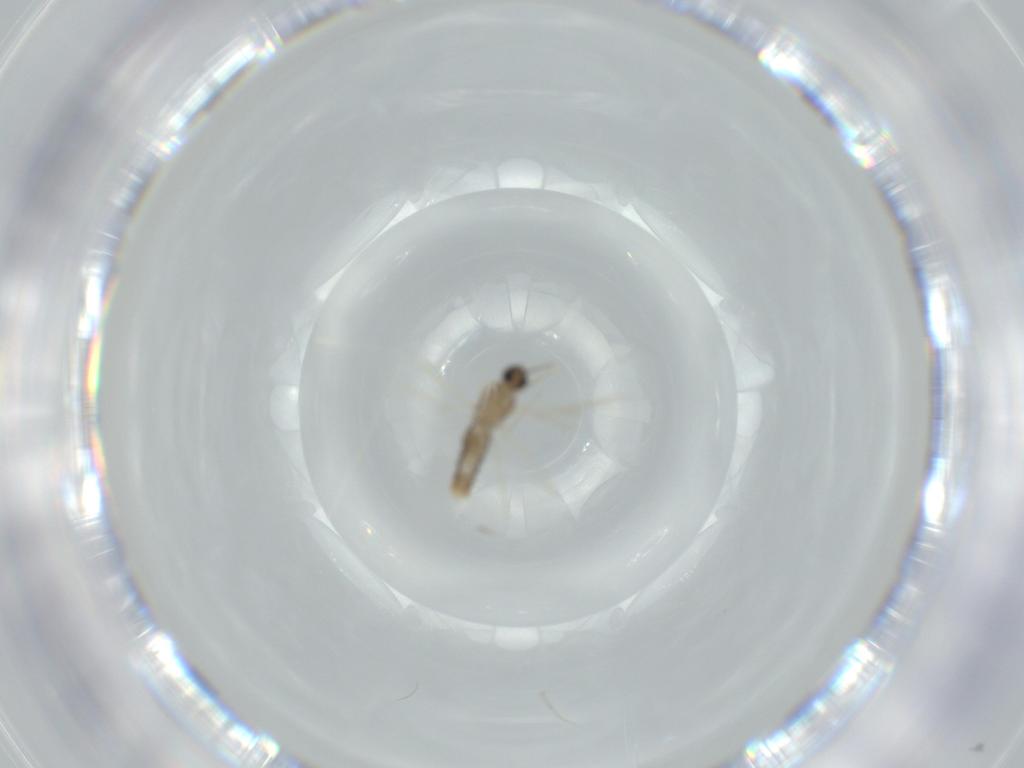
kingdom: Animalia
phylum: Arthropoda
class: Insecta
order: Diptera
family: Cecidomyiidae
